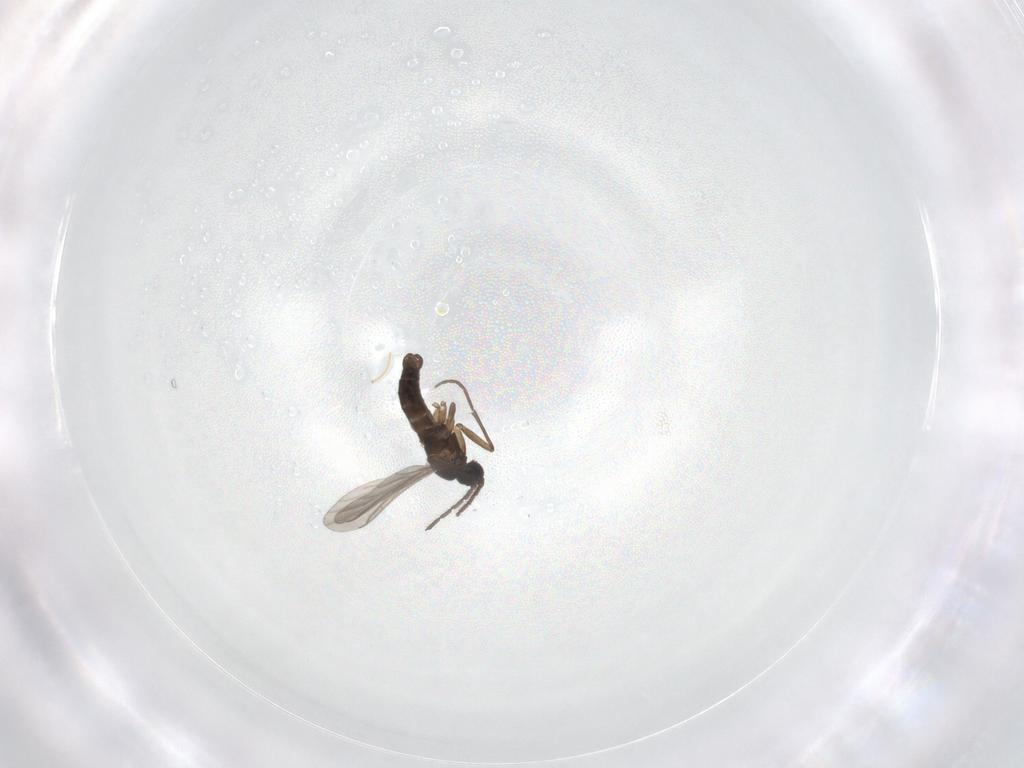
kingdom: Animalia
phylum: Arthropoda
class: Insecta
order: Diptera
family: Sciaridae
